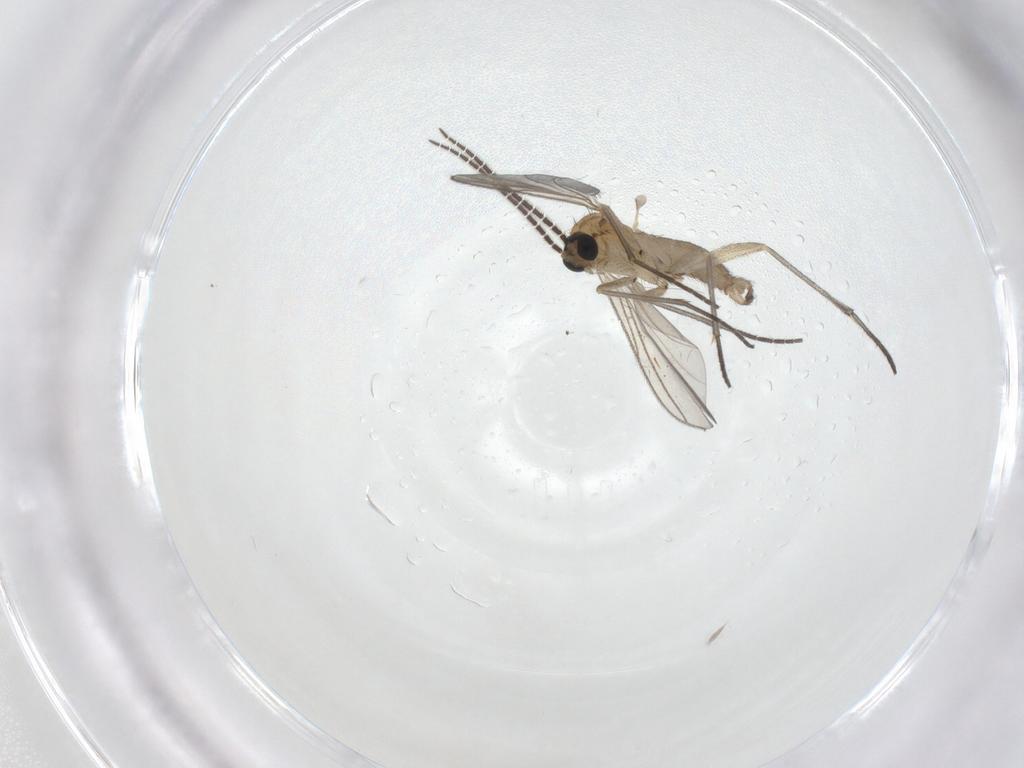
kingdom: Animalia
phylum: Arthropoda
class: Insecta
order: Diptera
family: Sciaridae
